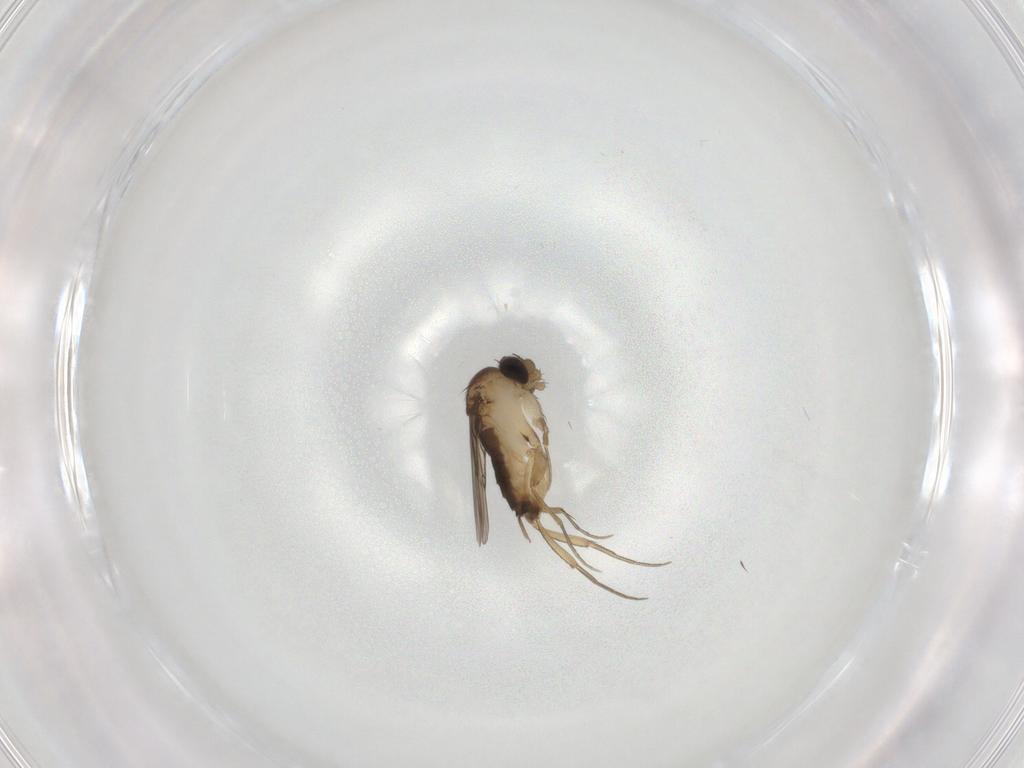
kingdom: Animalia
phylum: Arthropoda
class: Insecta
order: Diptera
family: Phoridae
